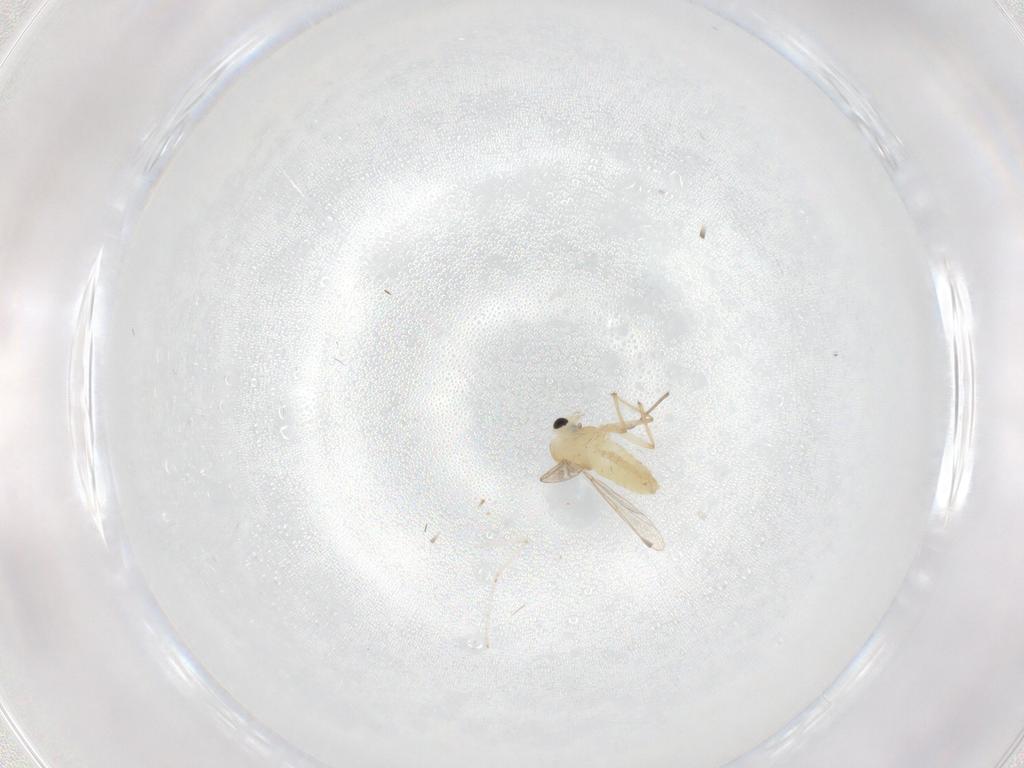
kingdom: Animalia
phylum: Arthropoda
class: Insecta
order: Diptera
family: Chironomidae
